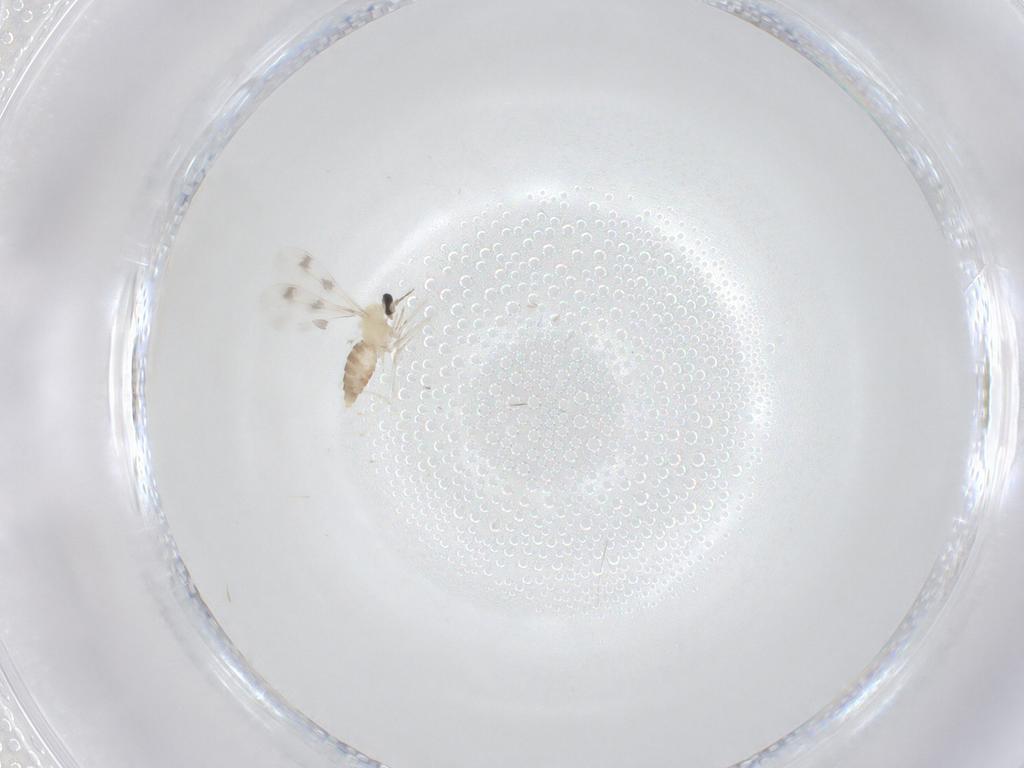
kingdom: Animalia
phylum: Arthropoda
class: Insecta
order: Diptera
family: Cecidomyiidae
